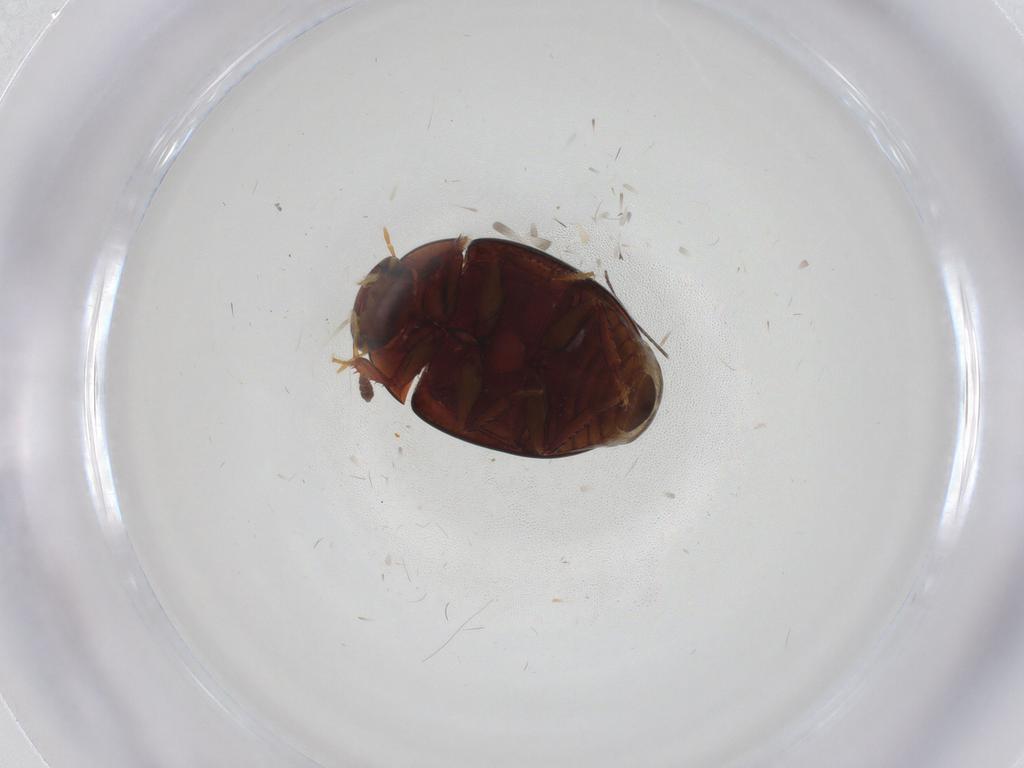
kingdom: Animalia
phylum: Arthropoda
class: Insecta
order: Coleoptera
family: Hydrophilidae
